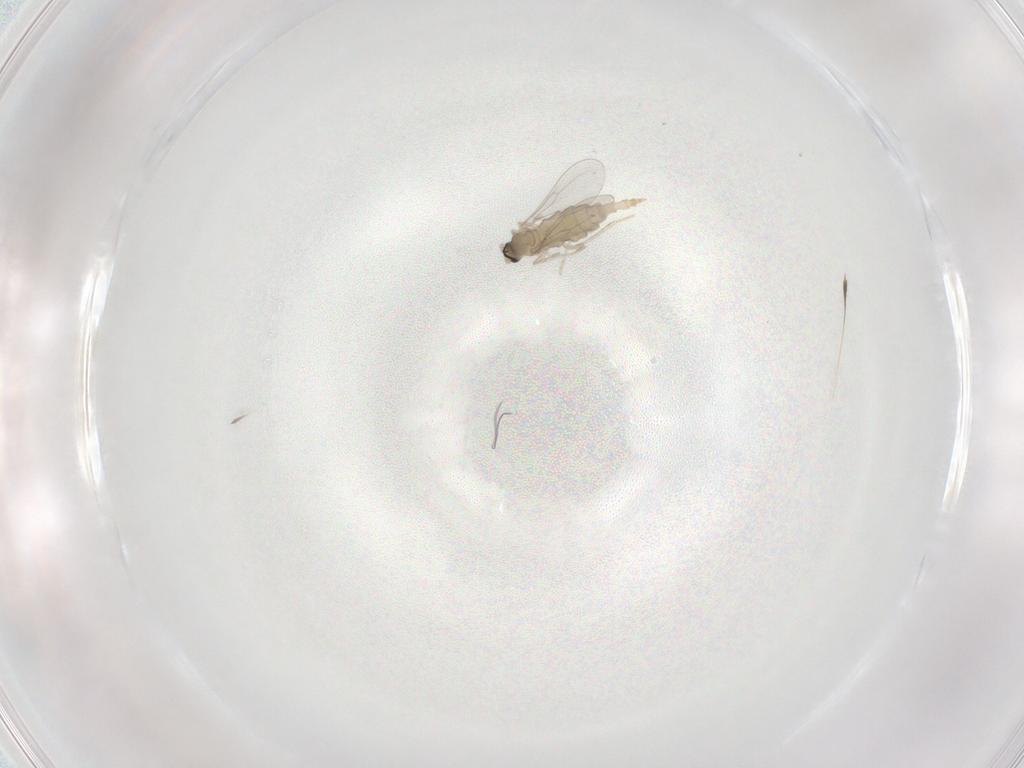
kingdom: Animalia
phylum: Arthropoda
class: Insecta
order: Diptera
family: Cecidomyiidae
